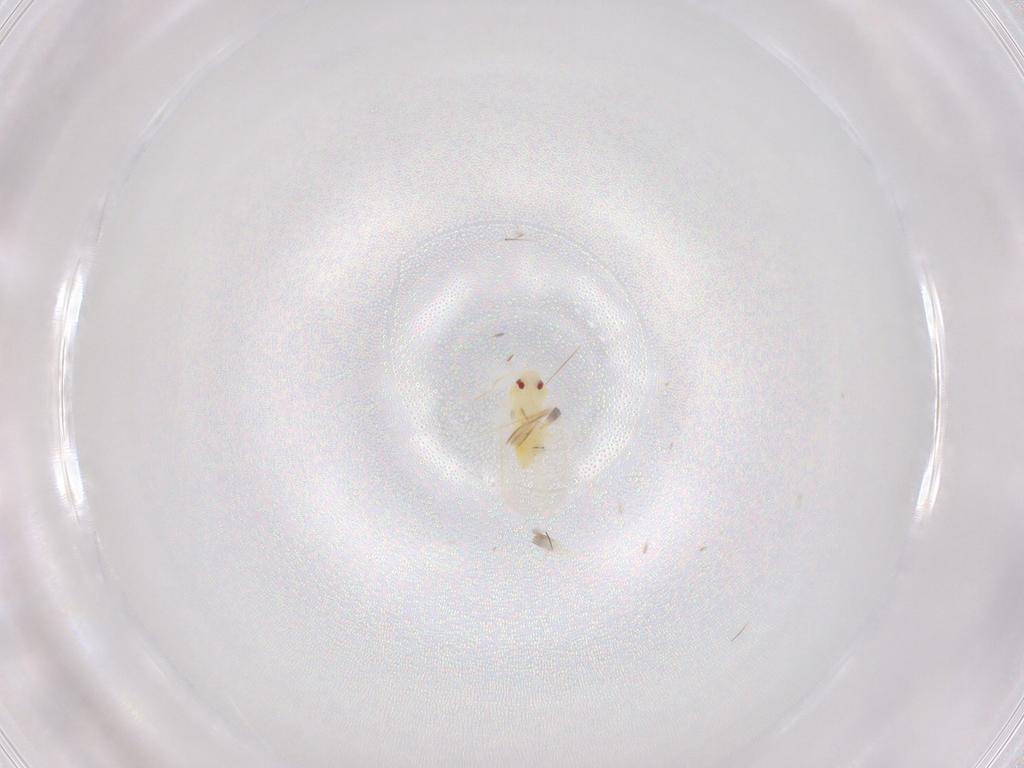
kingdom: Animalia
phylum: Arthropoda
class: Insecta
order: Hemiptera
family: Aleyrodidae
